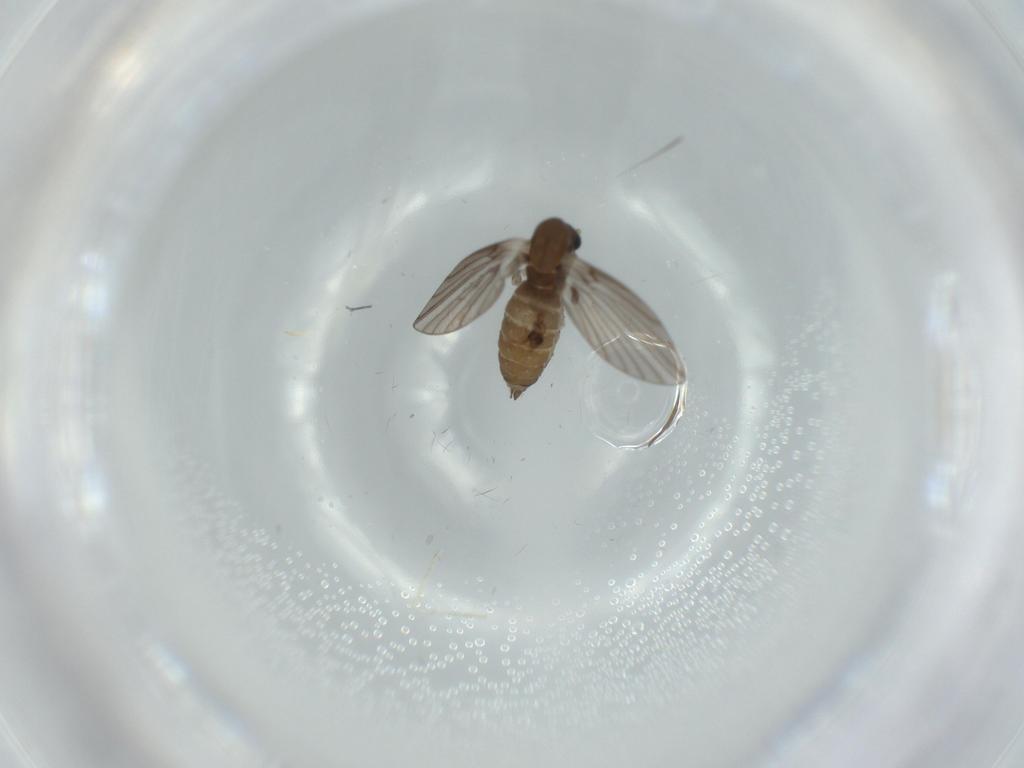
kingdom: Animalia
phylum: Arthropoda
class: Insecta
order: Diptera
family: Psychodidae
